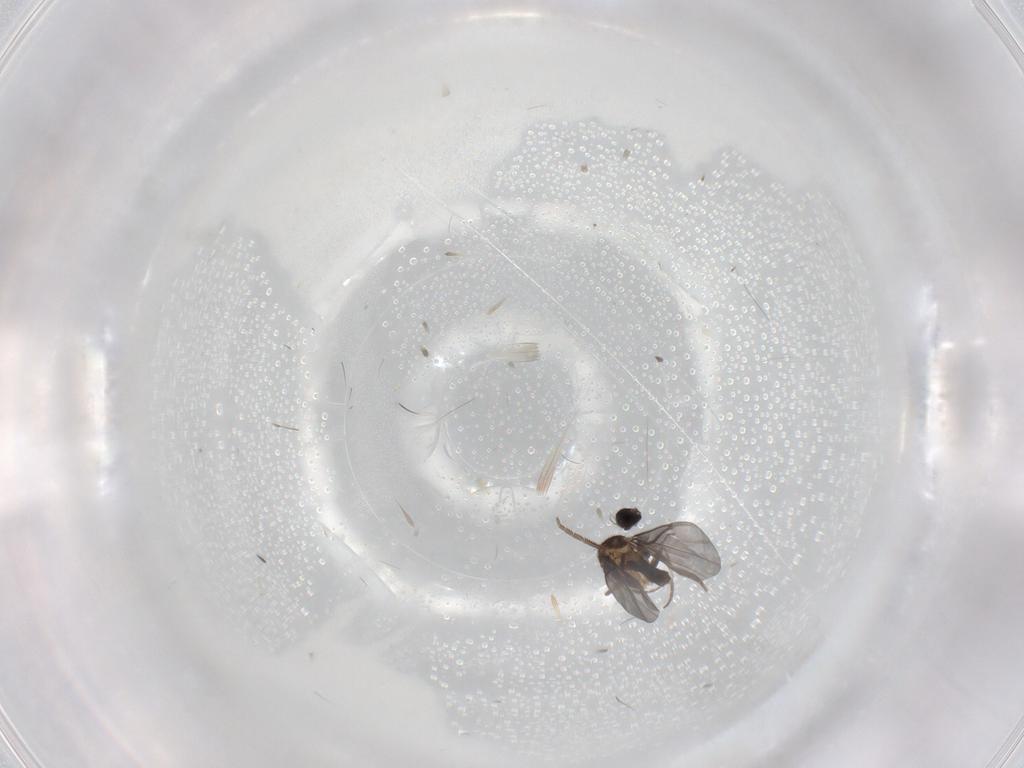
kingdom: Animalia
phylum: Arthropoda
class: Insecta
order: Diptera
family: Phoridae
